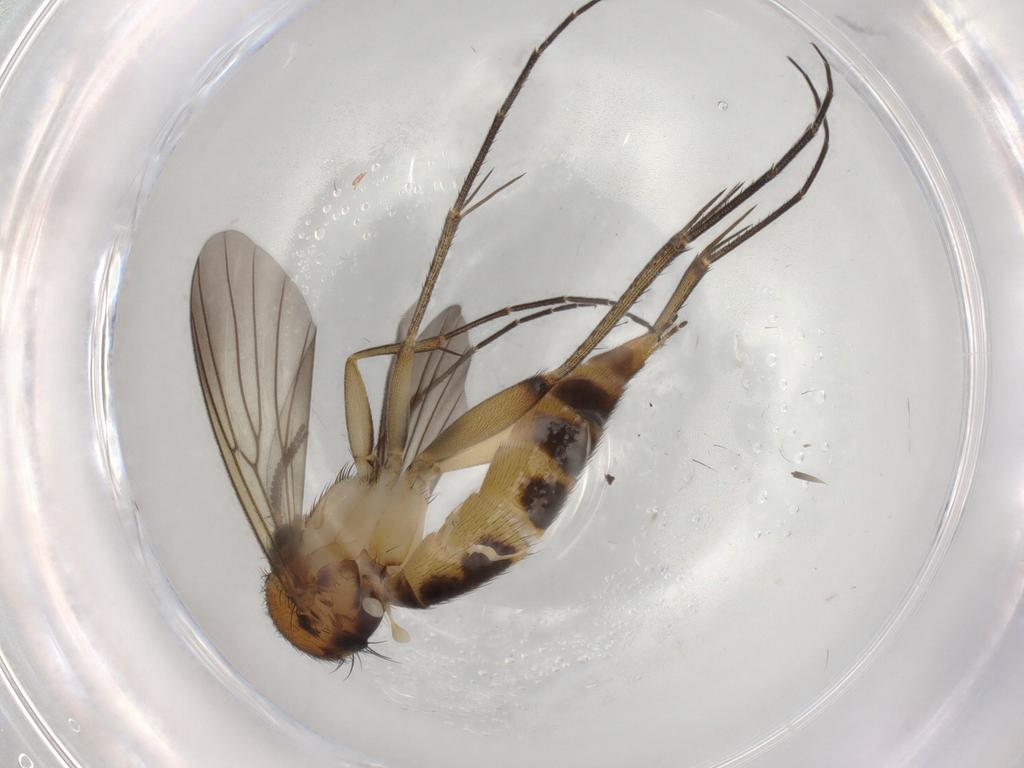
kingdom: Animalia
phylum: Arthropoda
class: Insecta
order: Diptera
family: Mycetophilidae
